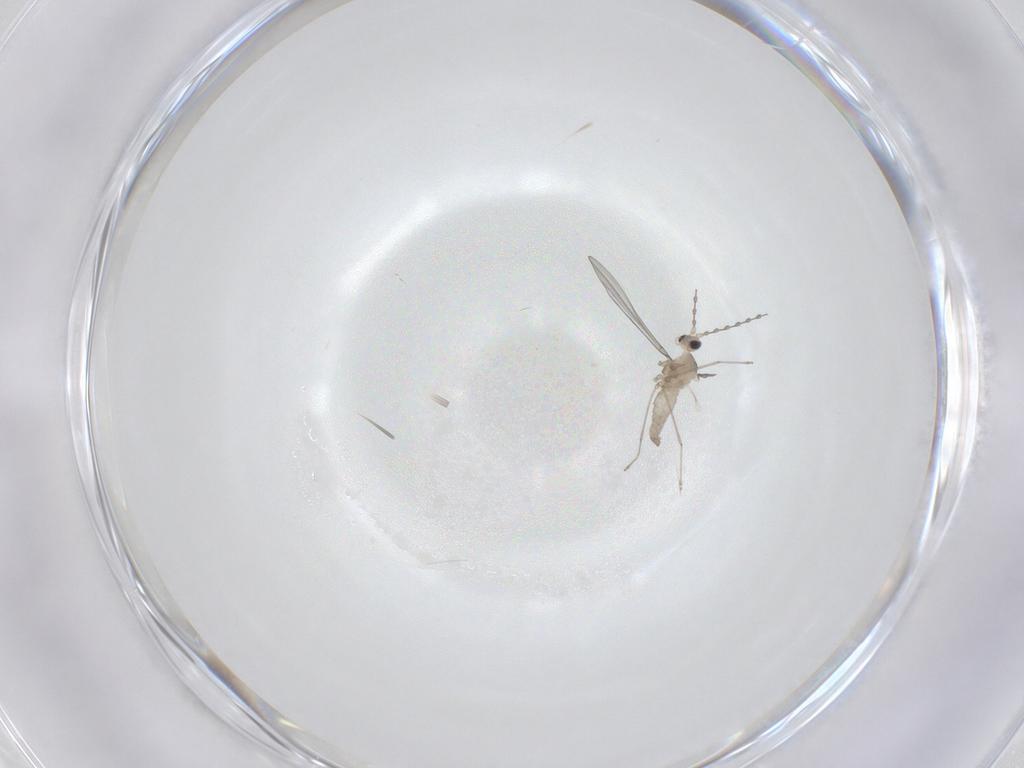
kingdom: Animalia
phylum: Arthropoda
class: Insecta
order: Diptera
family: Phoridae
